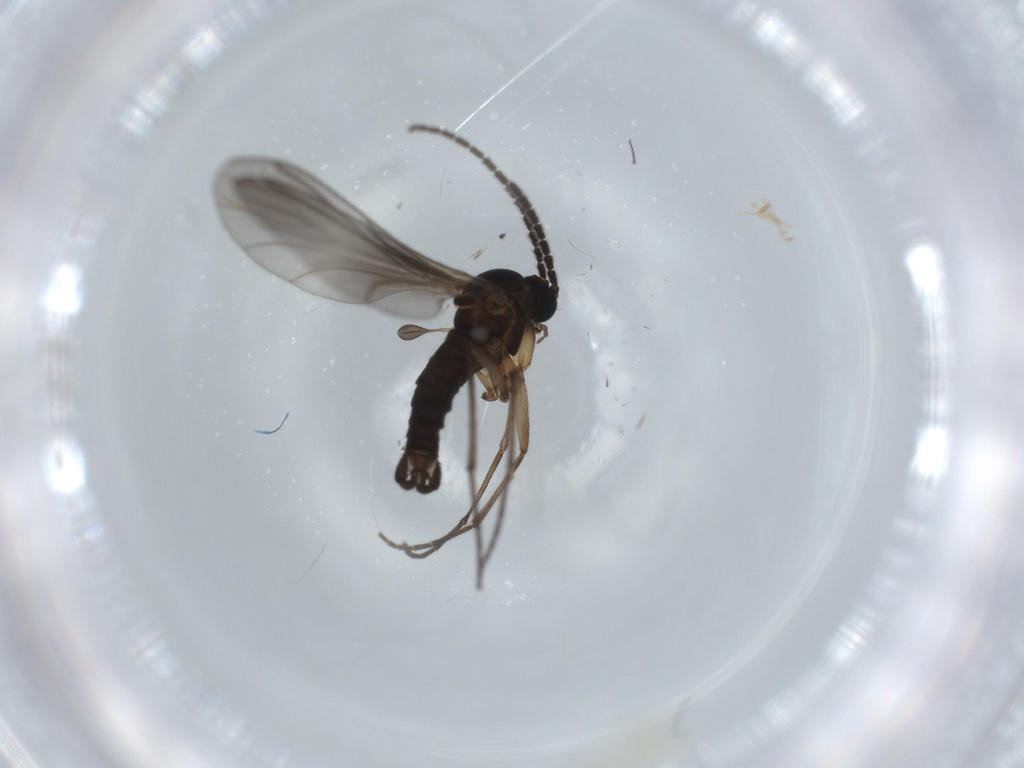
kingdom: Animalia
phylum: Arthropoda
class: Insecta
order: Diptera
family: Sciaridae
